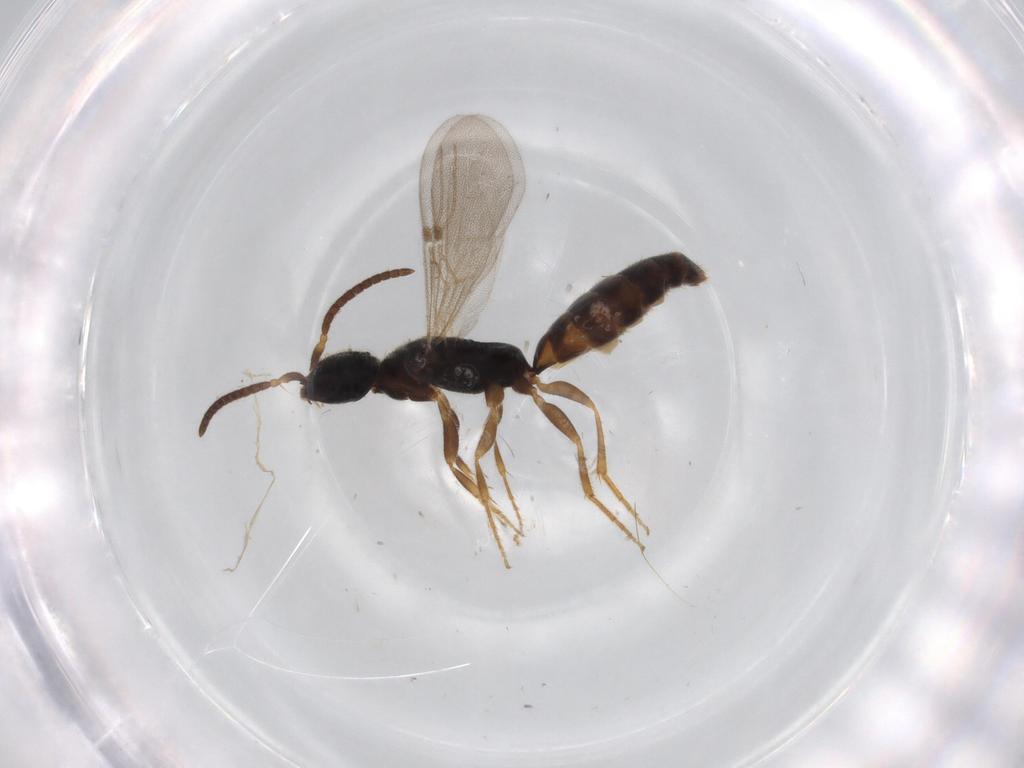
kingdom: Animalia
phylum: Arthropoda
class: Insecta
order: Hymenoptera
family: Bethylidae
